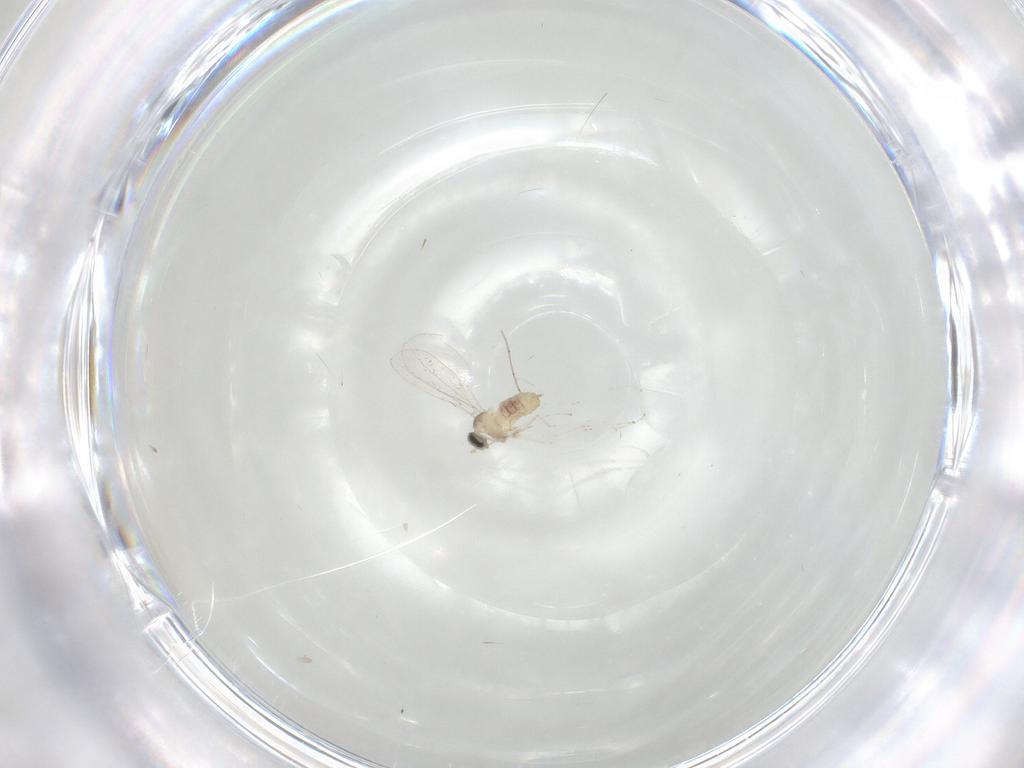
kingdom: Animalia
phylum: Arthropoda
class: Insecta
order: Diptera
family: Cecidomyiidae
